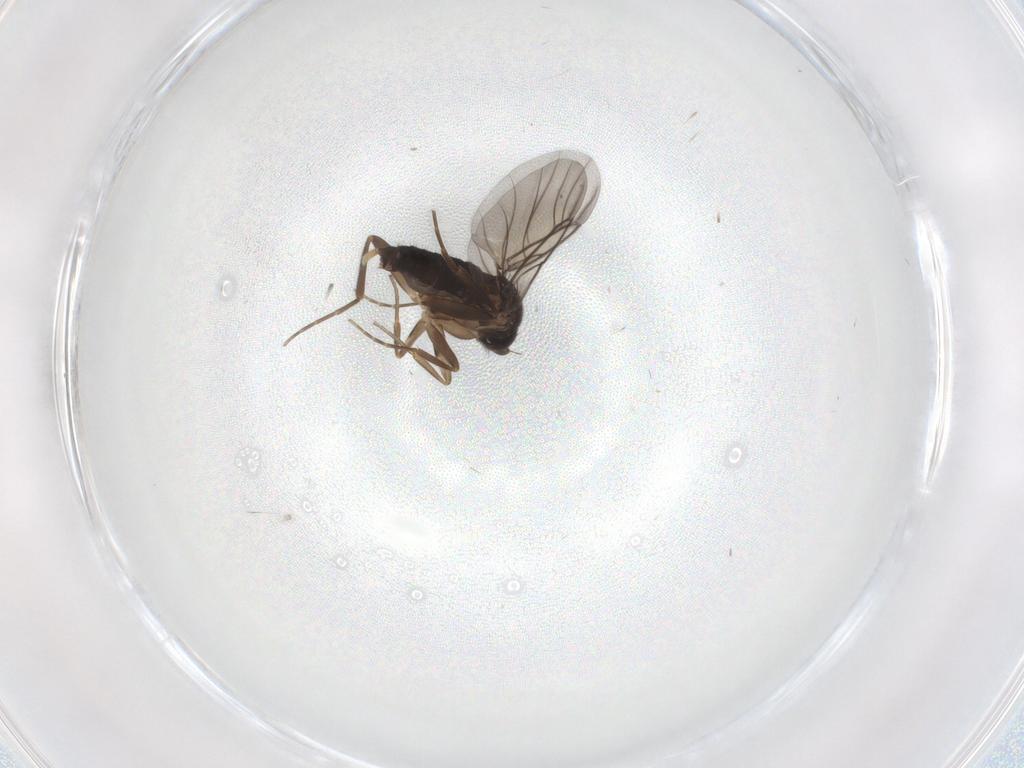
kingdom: Animalia
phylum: Arthropoda
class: Insecta
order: Diptera
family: Phoridae
